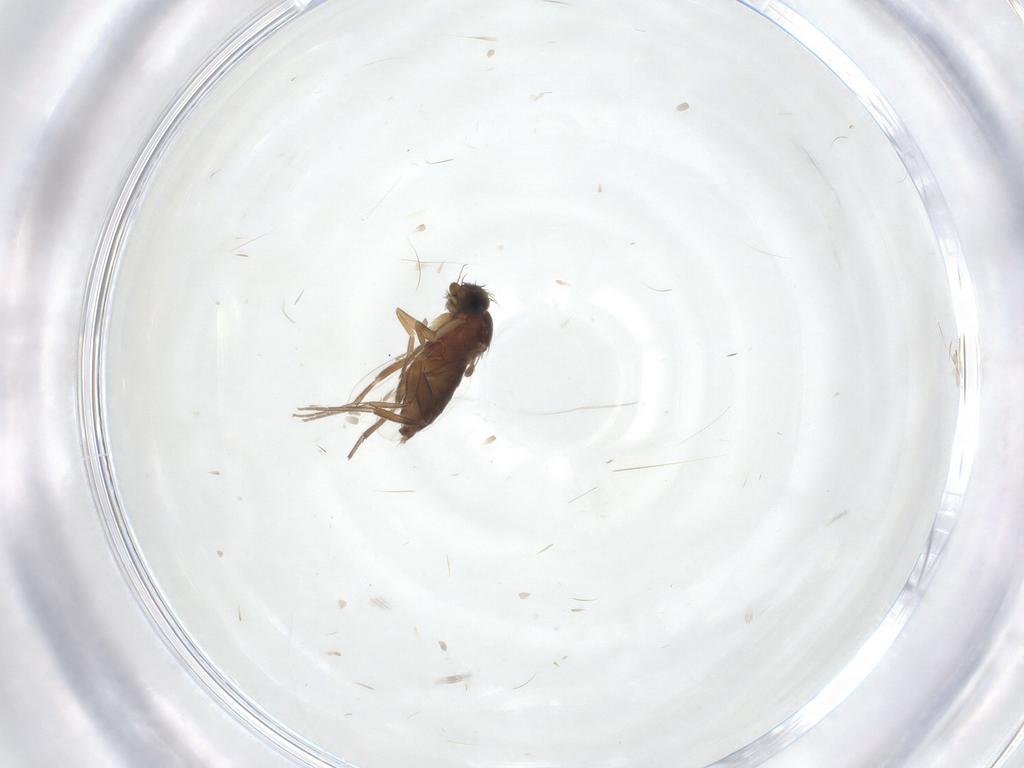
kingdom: Animalia
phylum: Arthropoda
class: Insecta
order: Diptera
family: Phoridae
